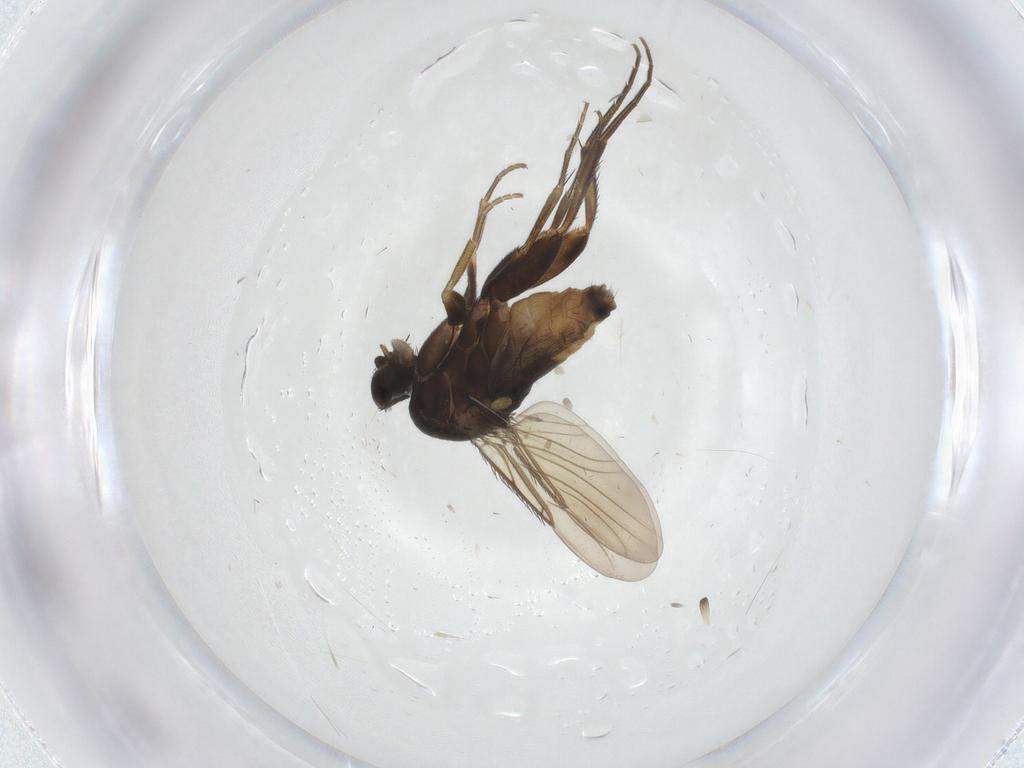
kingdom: Animalia
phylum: Arthropoda
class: Insecta
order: Diptera
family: Phoridae
